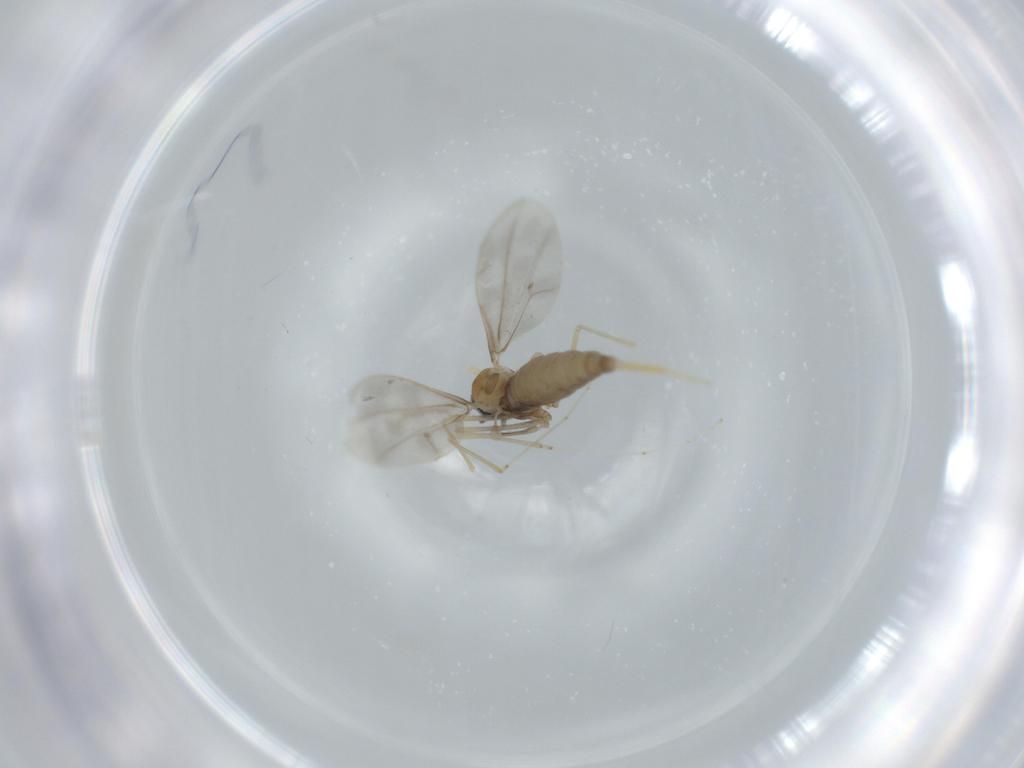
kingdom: Animalia
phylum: Arthropoda
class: Insecta
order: Diptera
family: Cecidomyiidae
